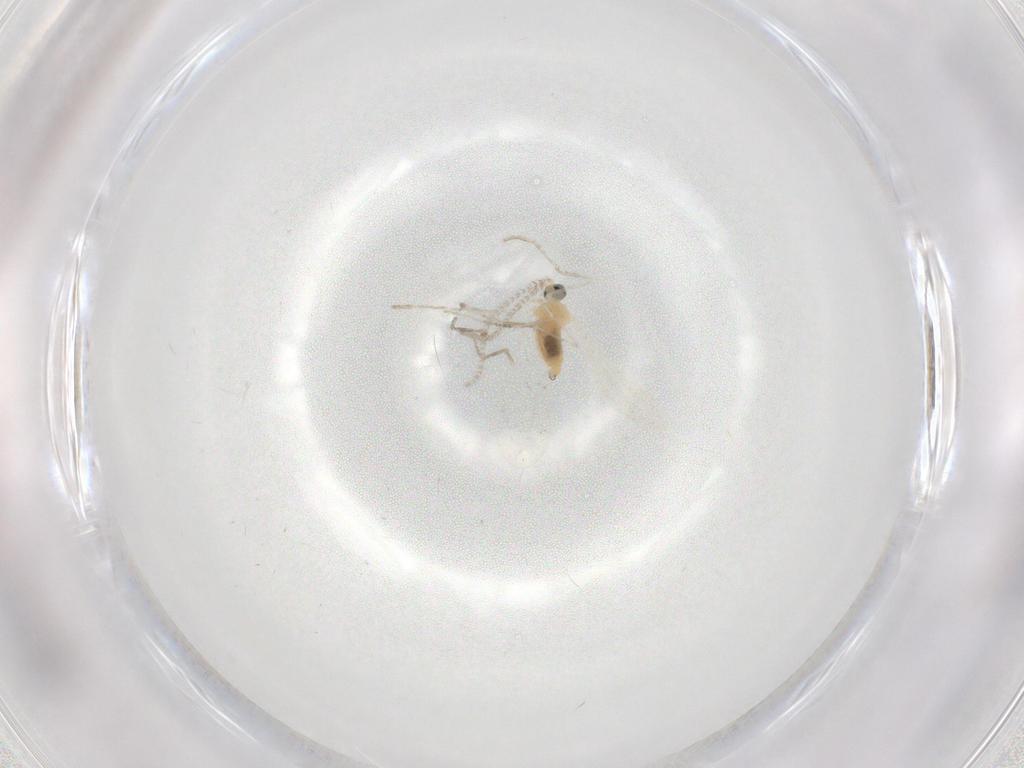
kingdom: Animalia
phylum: Arthropoda
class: Insecta
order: Diptera
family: Cecidomyiidae
